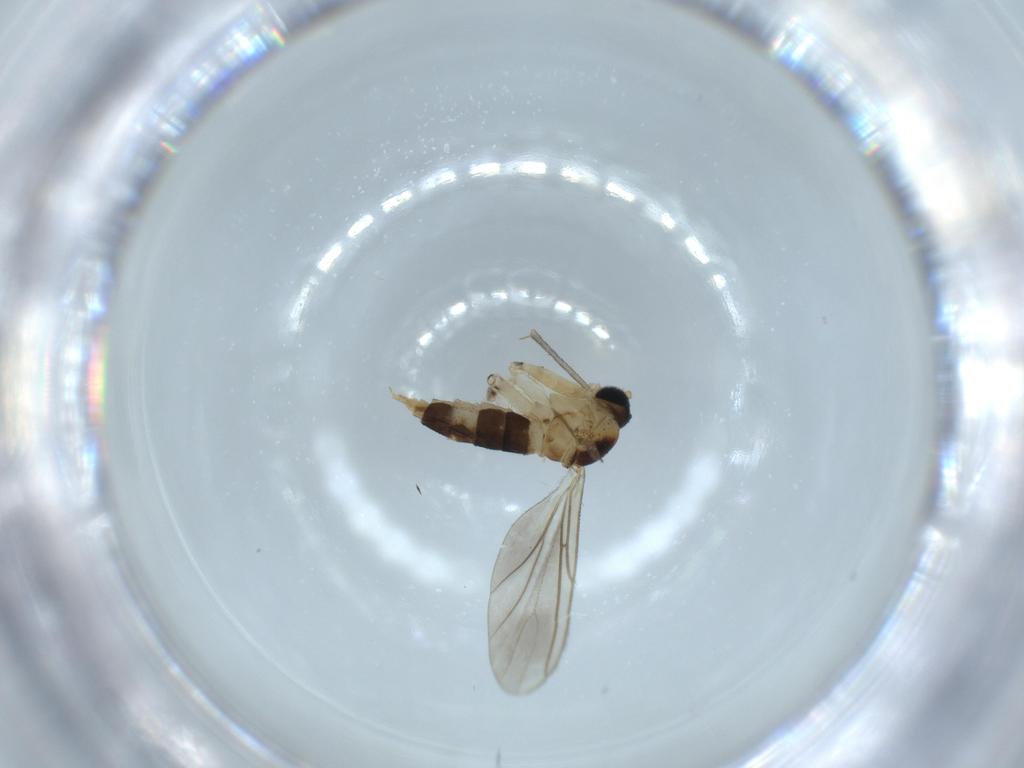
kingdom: Animalia
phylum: Arthropoda
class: Insecta
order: Diptera
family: Sciaridae
